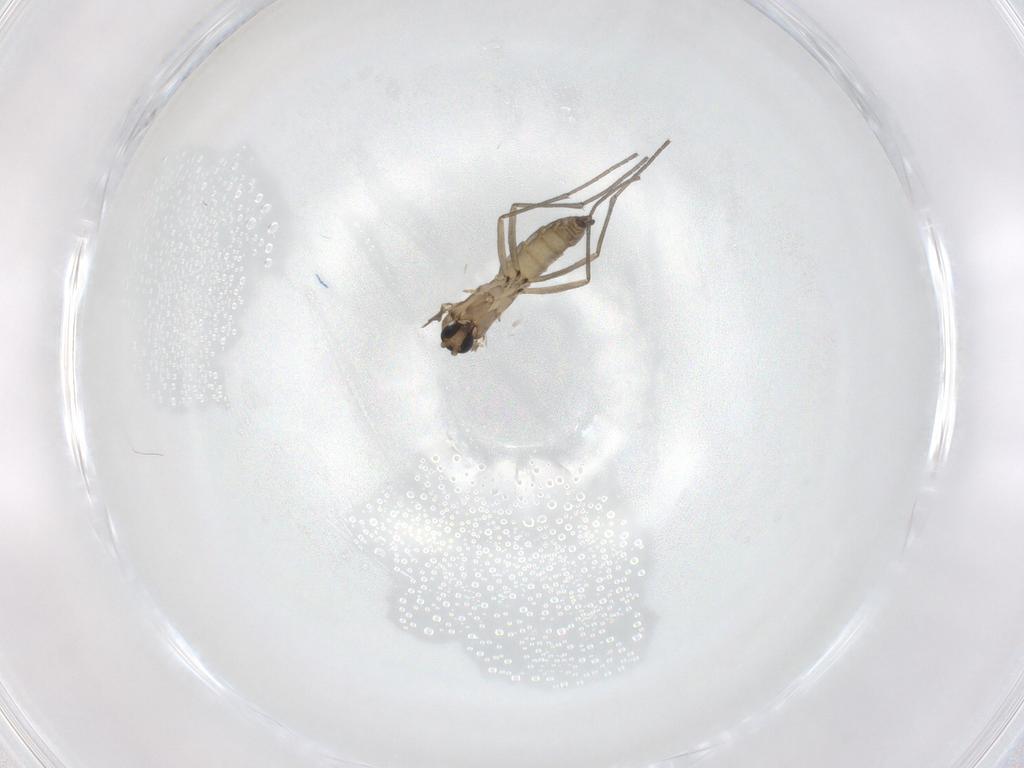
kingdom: Animalia
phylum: Arthropoda
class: Insecta
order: Diptera
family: Sciaridae
